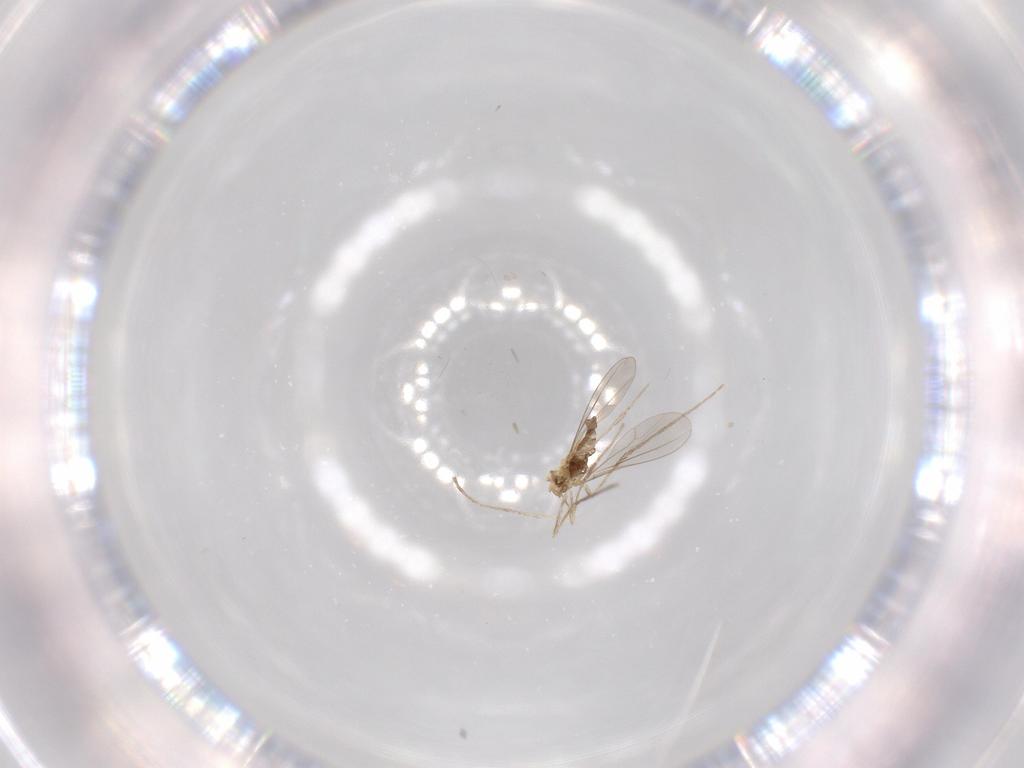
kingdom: Animalia
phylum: Arthropoda
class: Insecta
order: Diptera
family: Cecidomyiidae
